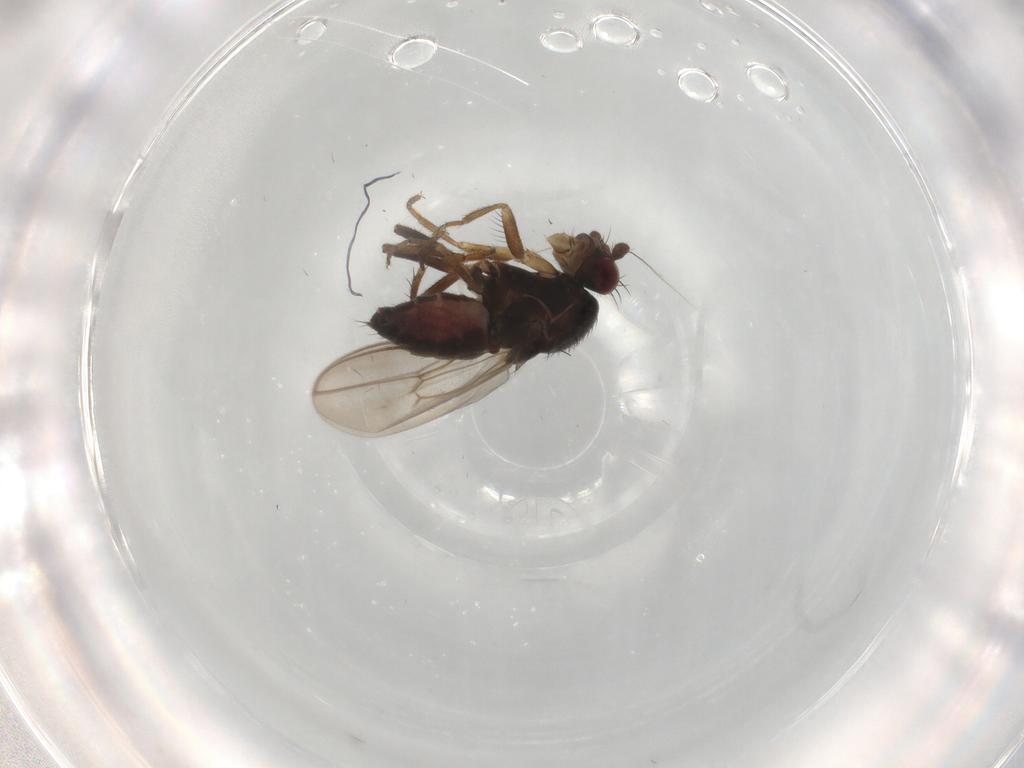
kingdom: Animalia
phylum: Arthropoda
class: Insecta
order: Diptera
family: Sphaeroceridae
